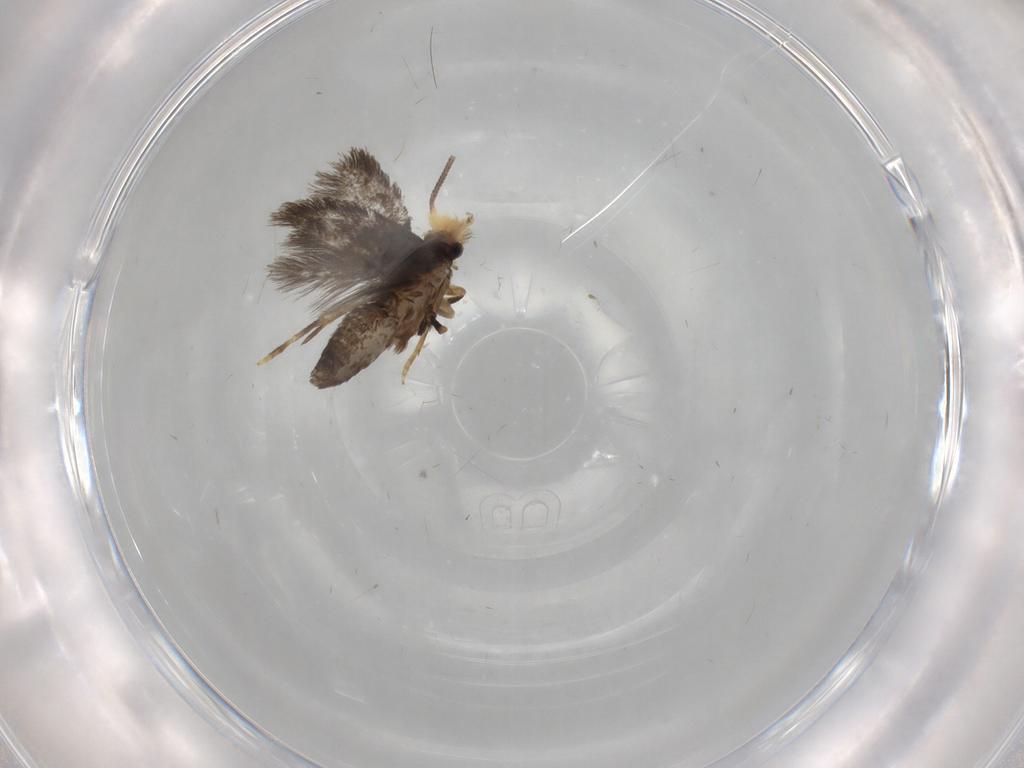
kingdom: Animalia
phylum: Arthropoda
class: Insecta
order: Lepidoptera
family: Nepticulidae
